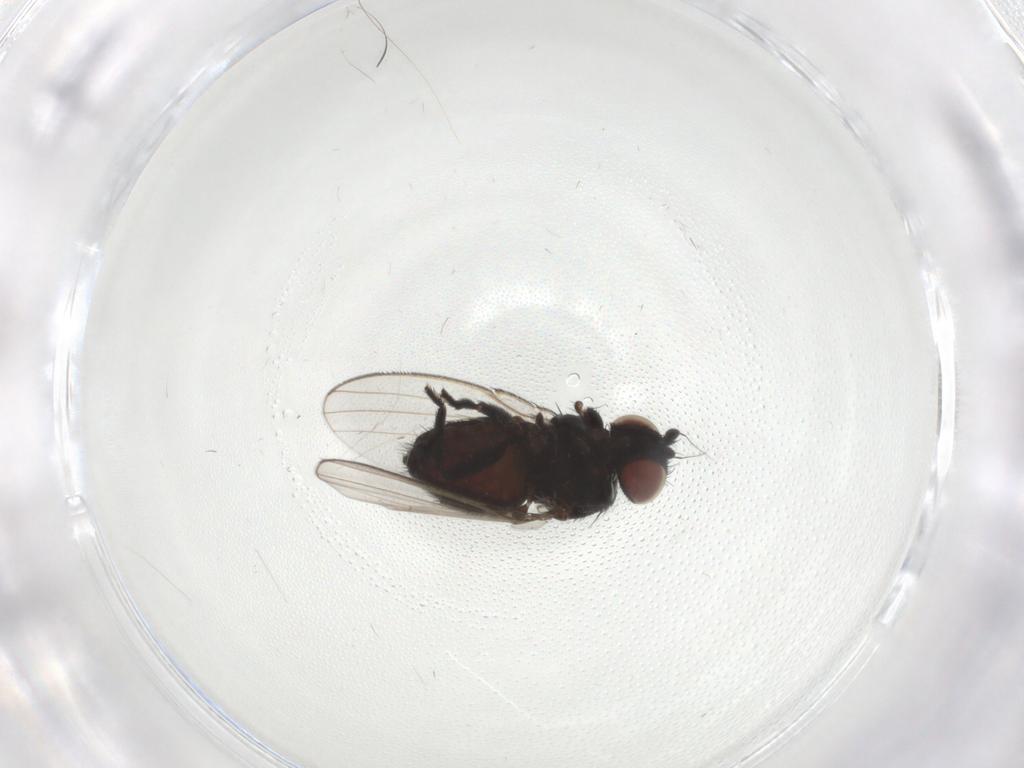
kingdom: Animalia
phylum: Arthropoda
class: Insecta
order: Diptera
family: Milichiidae
